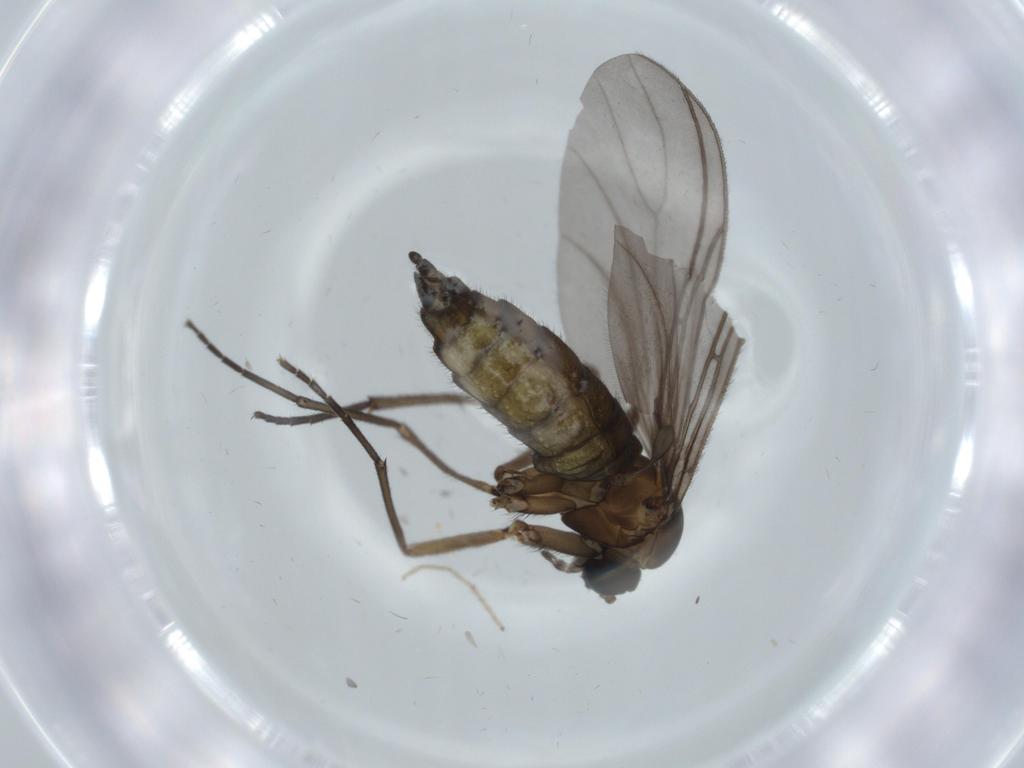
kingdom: Animalia
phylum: Arthropoda
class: Insecta
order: Diptera
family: Sciaridae
